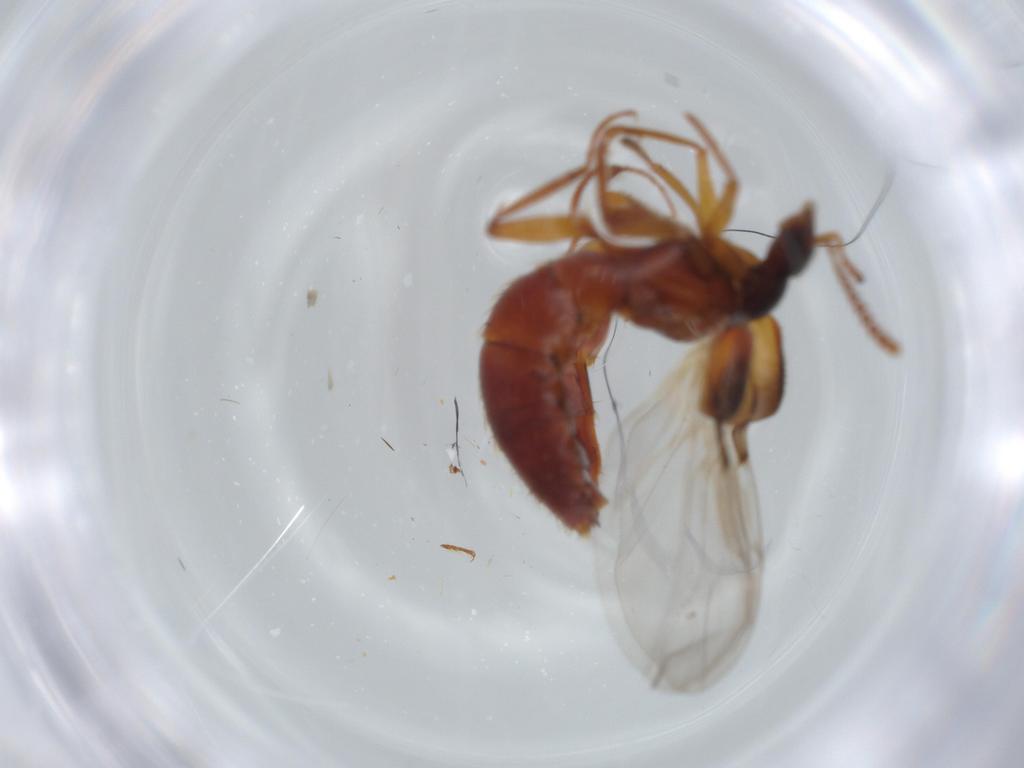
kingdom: Animalia
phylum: Arthropoda
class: Insecta
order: Coleoptera
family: Staphylinidae
